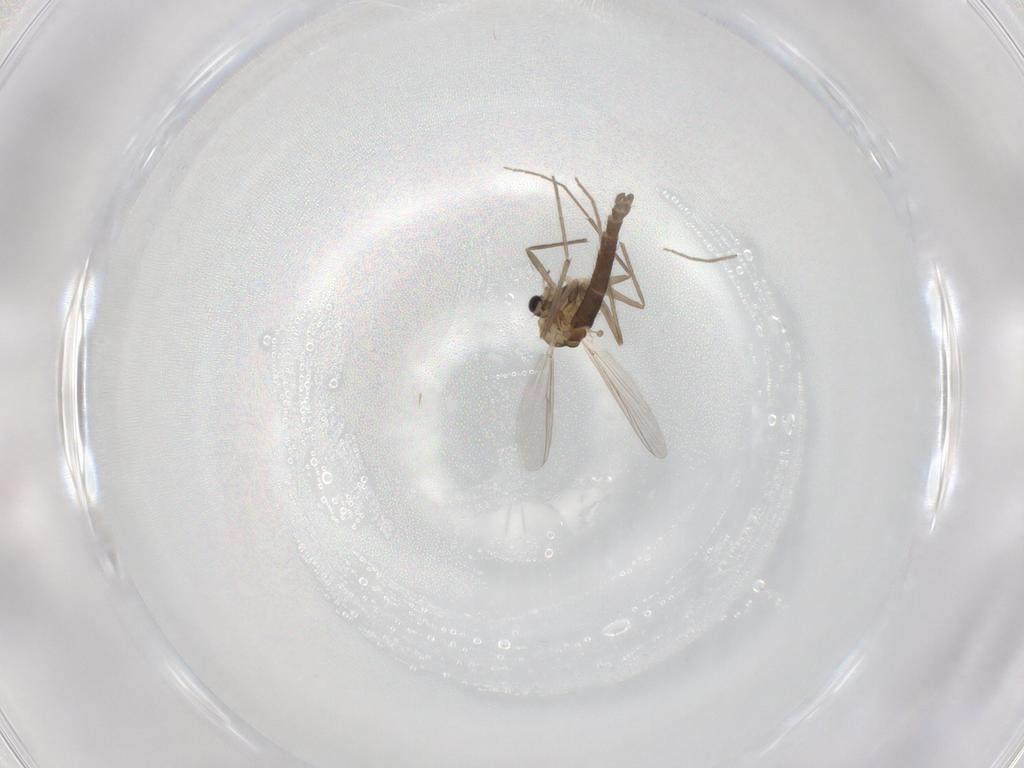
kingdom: Animalia
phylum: Arthropoda
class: Insecta
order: Diptera
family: Chironomidae
